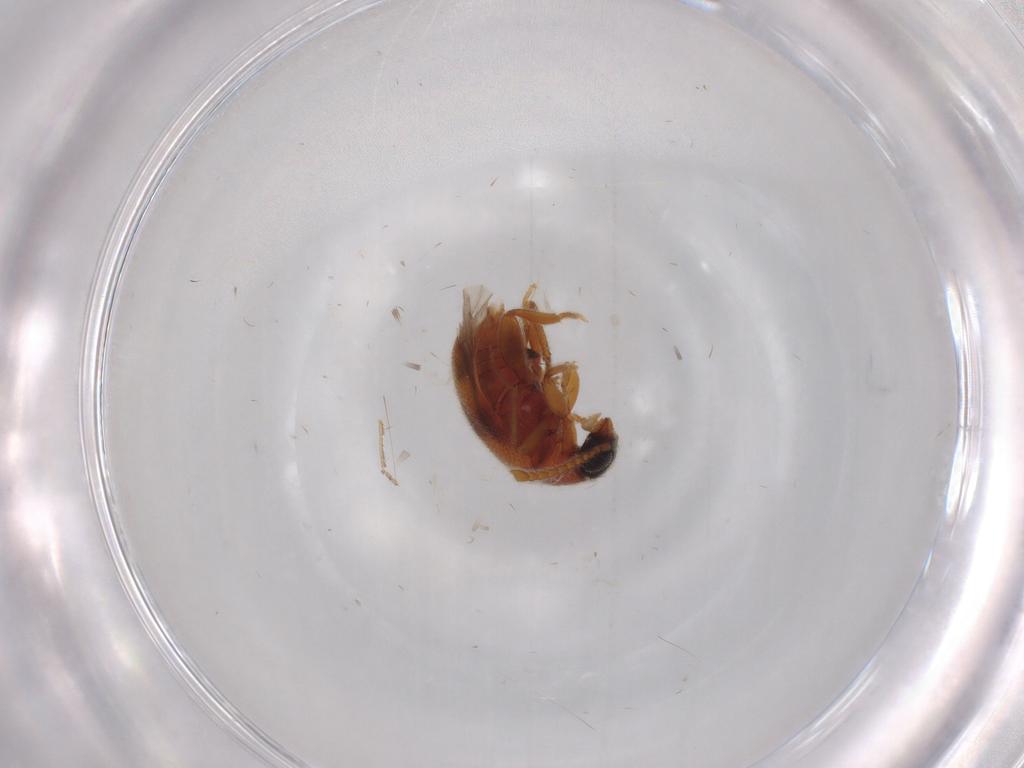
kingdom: Animalia
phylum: Arthropoda
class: Insecta
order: Coleoptera
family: Aderidae
